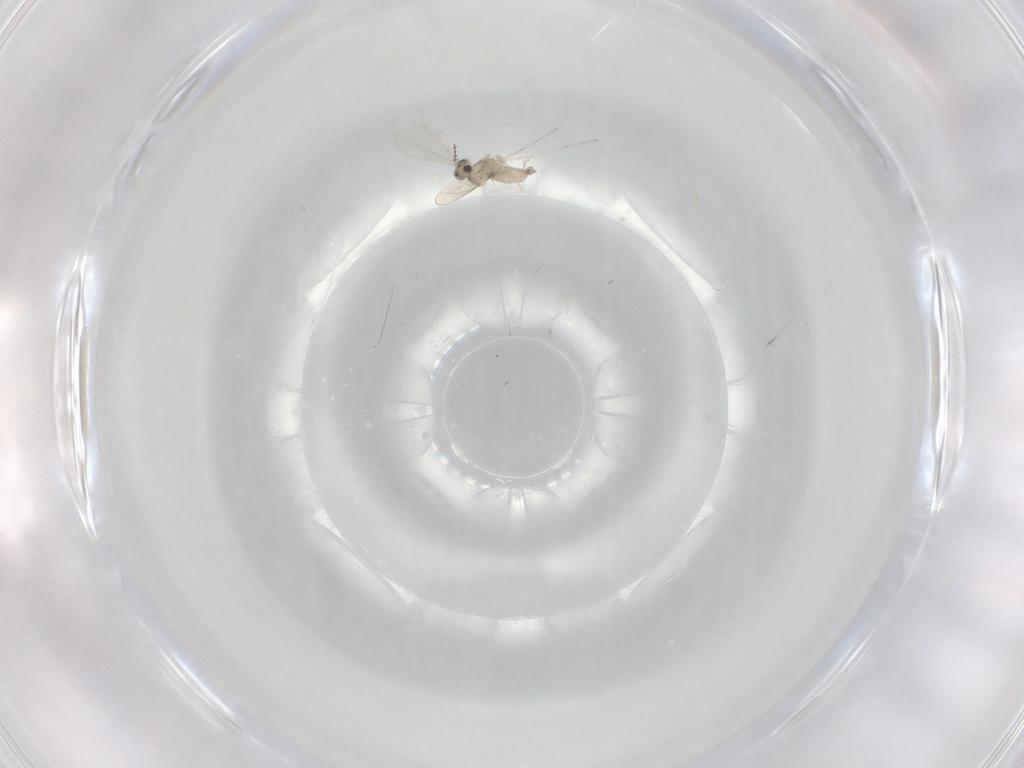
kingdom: Animalia
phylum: Arthropoda
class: Insecta
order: Diptera
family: Cecidomyiidae
